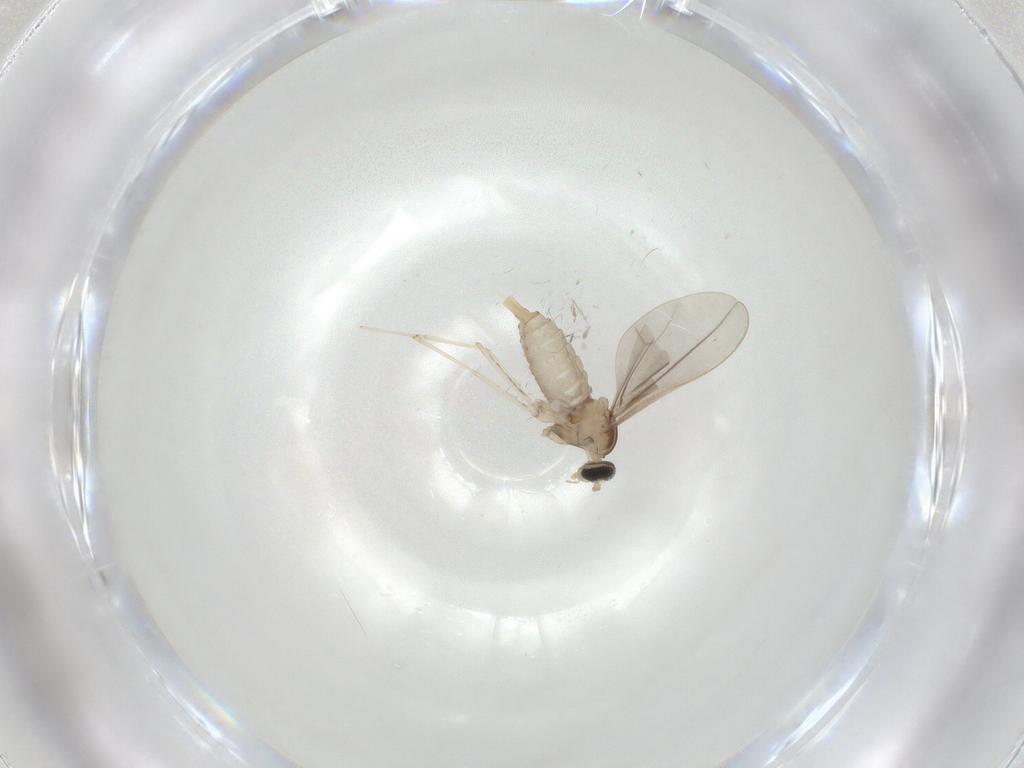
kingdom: Animalia
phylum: Arthropoda
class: Insecta
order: Diptera
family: Cecidomyiidae
